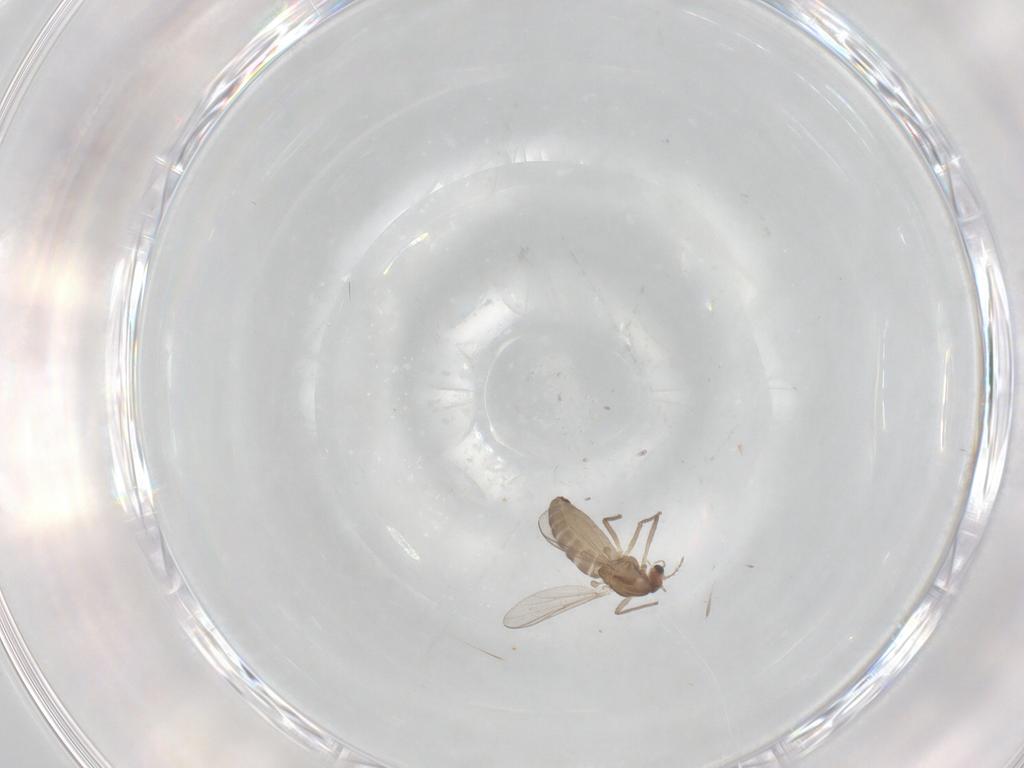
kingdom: Animalia
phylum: Arthropoda
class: Insecta
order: Diptera
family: Chironomidae
